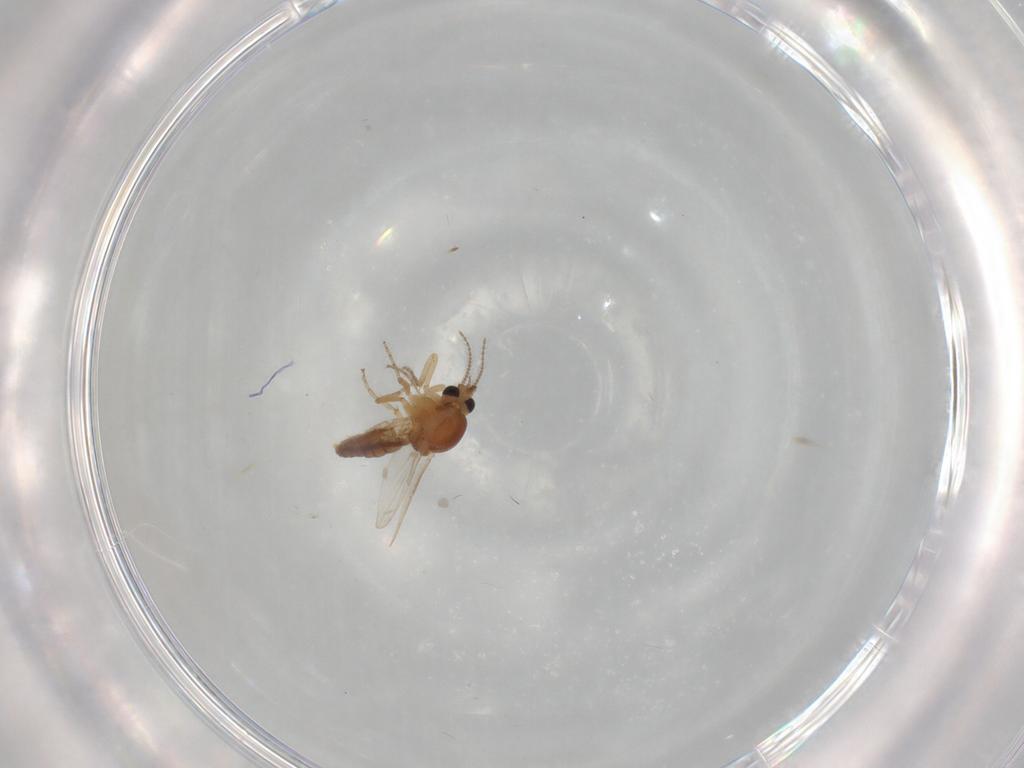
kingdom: Animalia
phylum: Arthropoda
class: Insecta
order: Diptera
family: Ceratopogonidae
